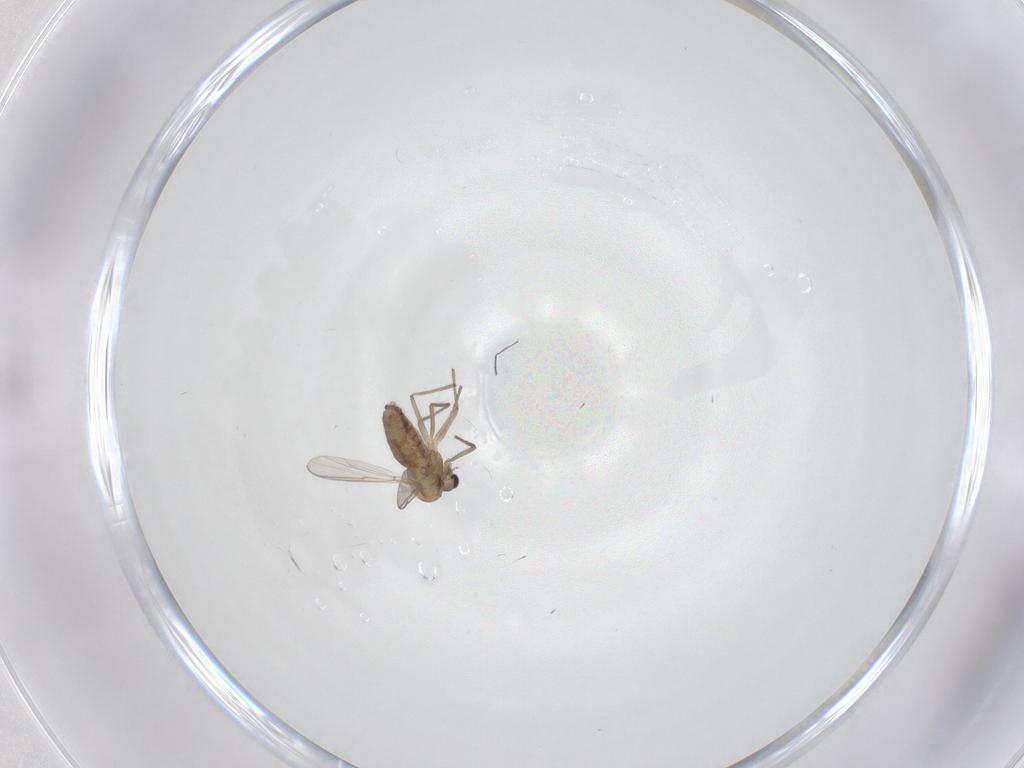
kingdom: Animalia
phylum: Arthropoda
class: Insecta
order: Diptera
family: Chironomidae
